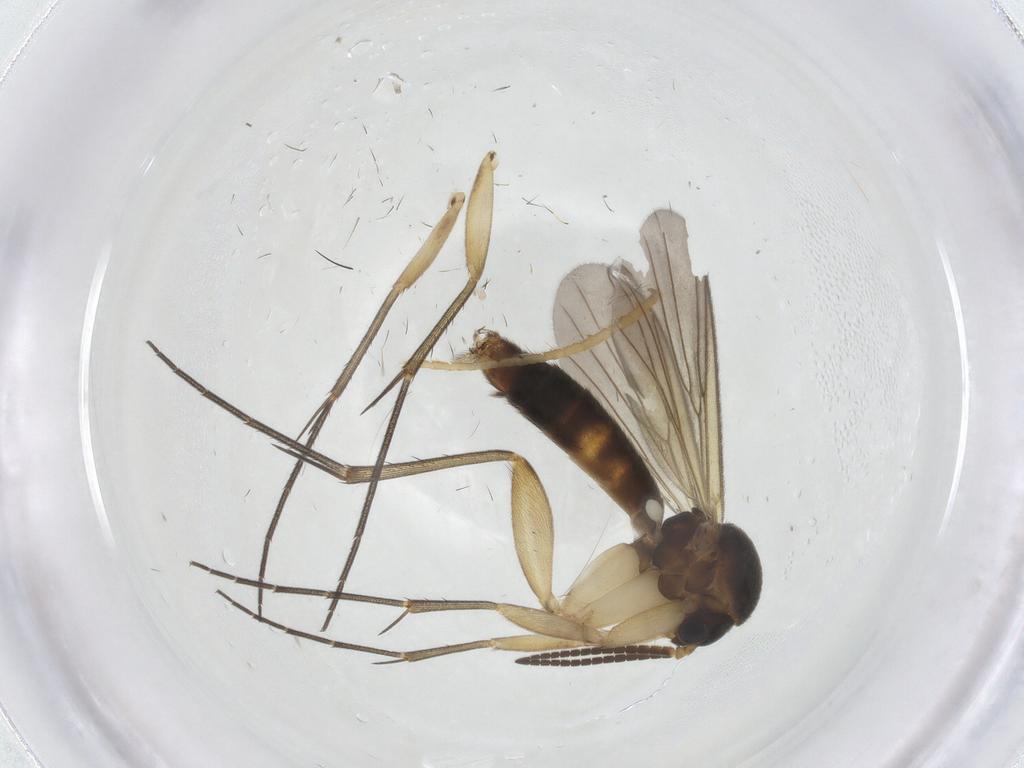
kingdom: Animalia
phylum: Arthropoda
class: Insecta
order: Diptera
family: Mycetophilidae
